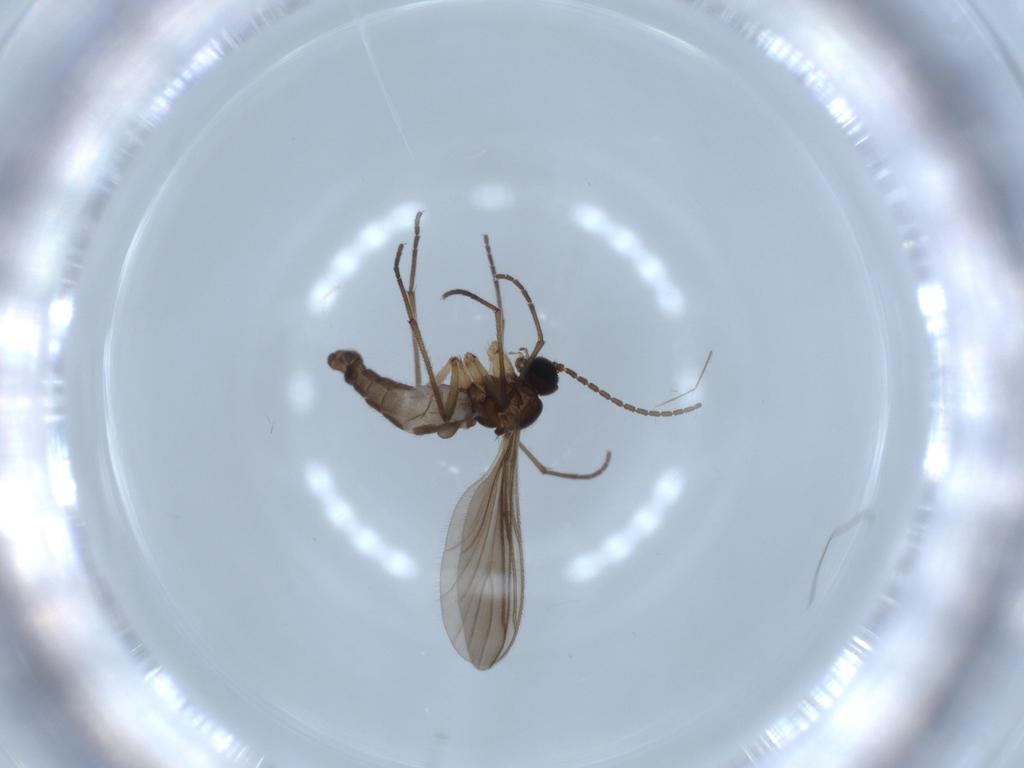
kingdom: Animalia
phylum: Arthropoda
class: Insecta
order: Diptera
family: Sciaridae
